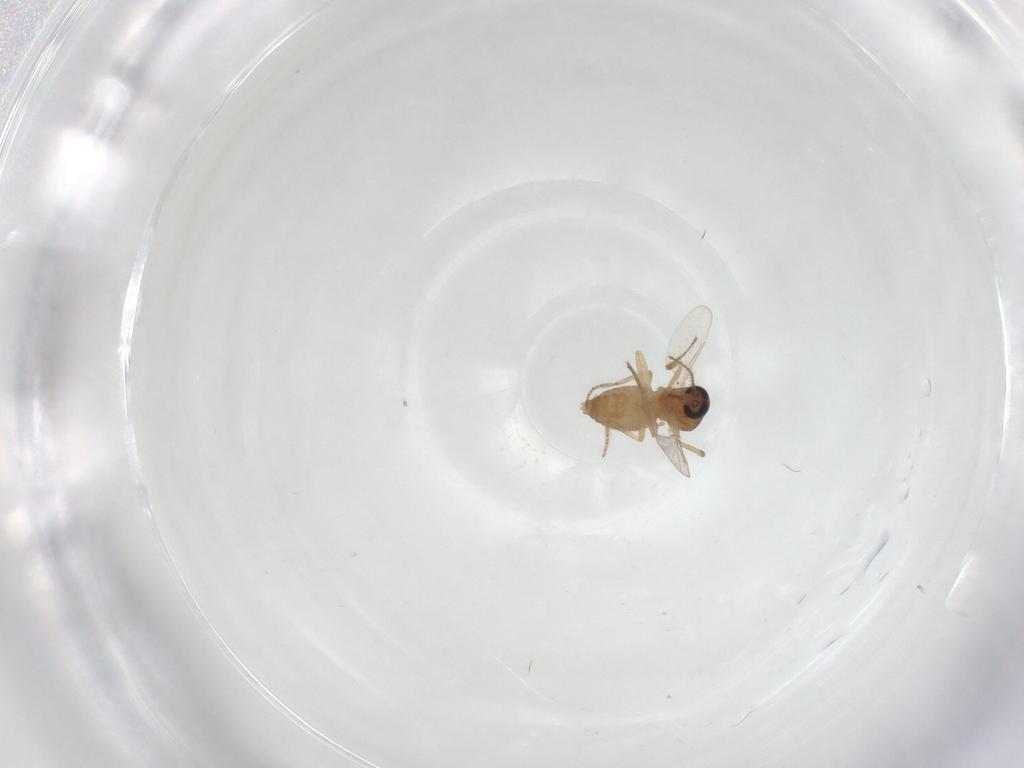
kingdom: Animalia
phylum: Arthropoda
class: Insecta
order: Diptera
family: Ceratopogonidae
